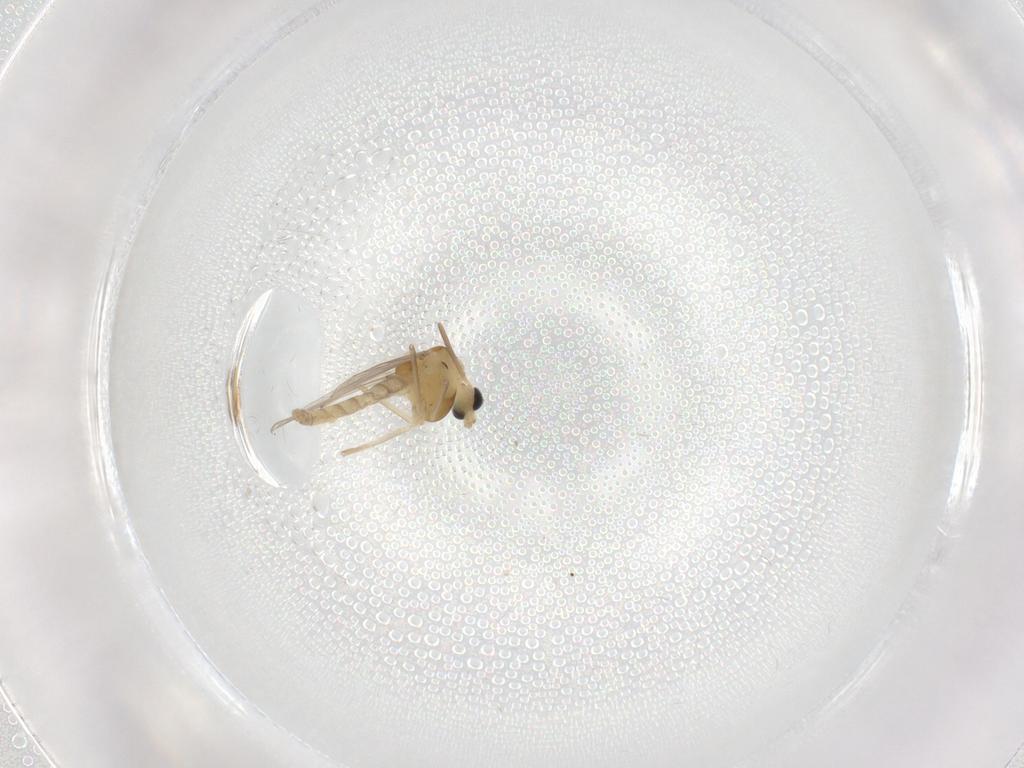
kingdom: Animalia
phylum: Arthropoda
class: Insecta
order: Diptera
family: Chironomidae
